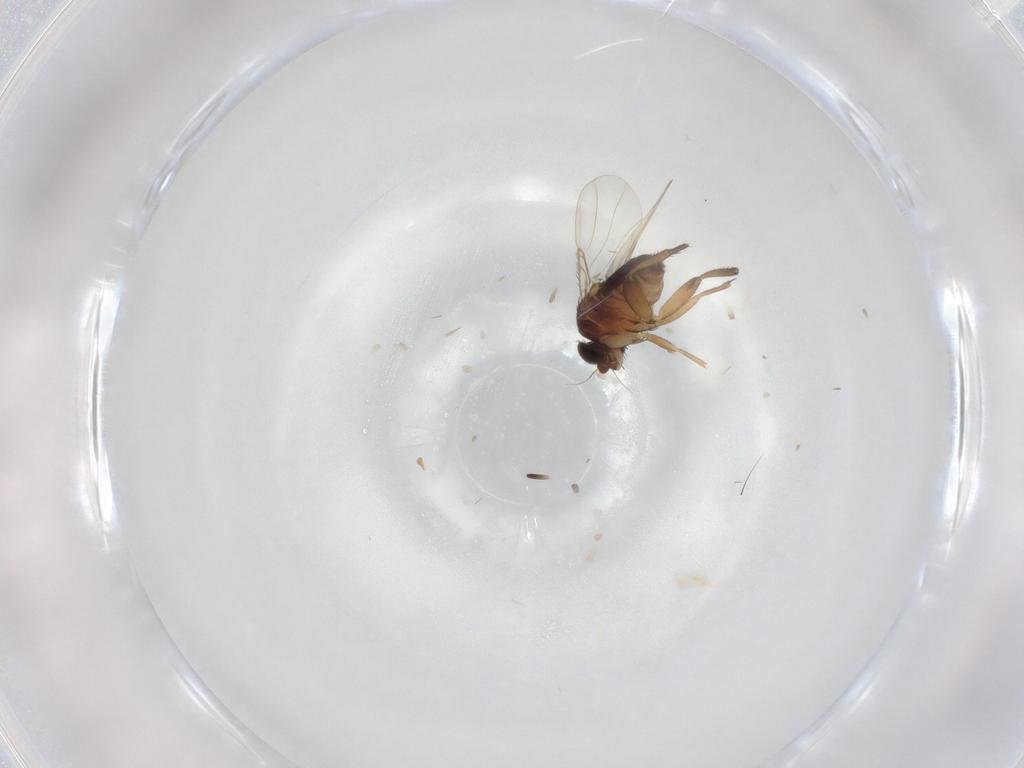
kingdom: Animalia
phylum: Arthropoda
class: Insecta
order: Diptera
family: Phoridae
